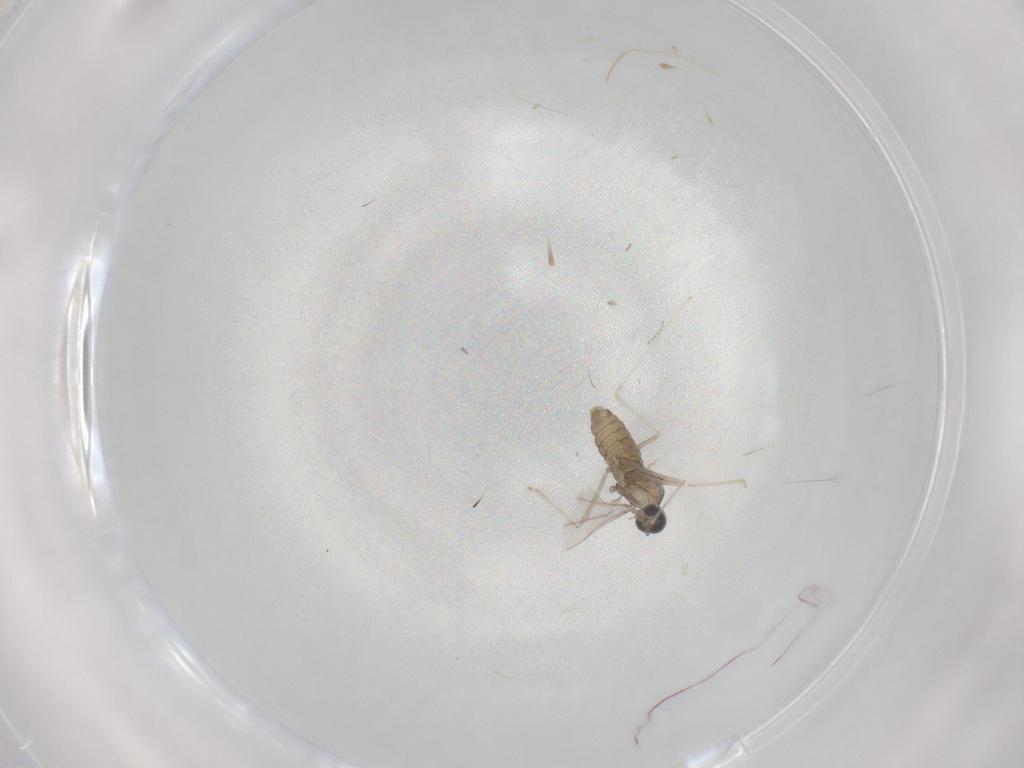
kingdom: Animalia
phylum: Arthropoda
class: Insecta
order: Diptera
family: Cecidomyiidae
